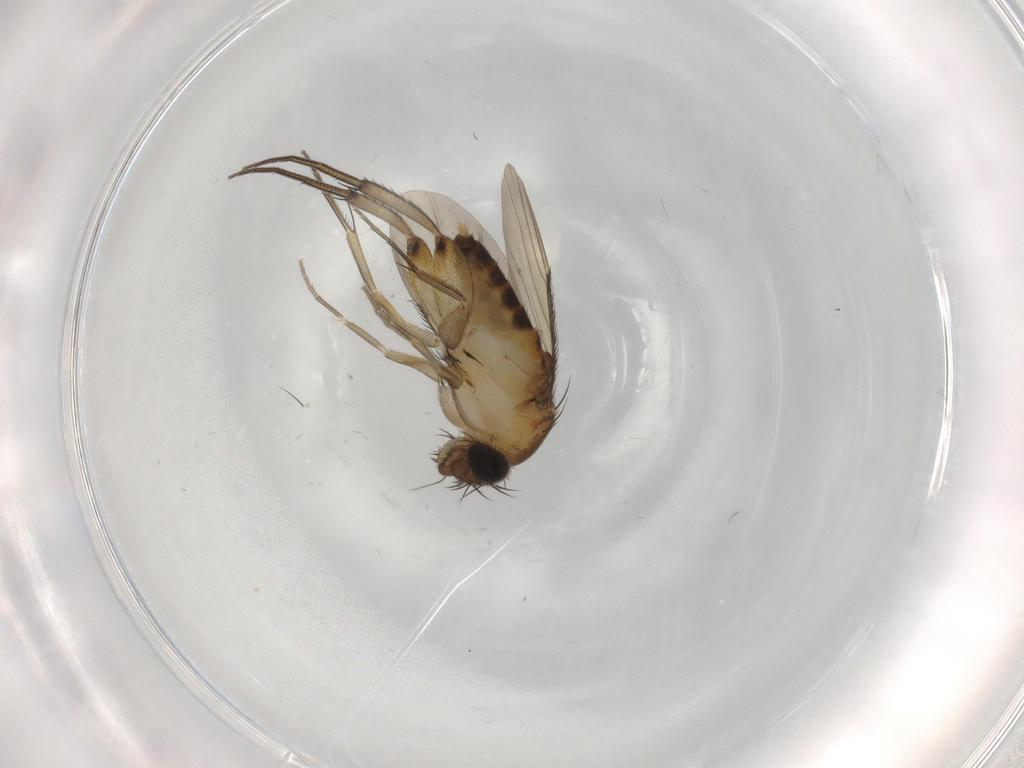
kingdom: Animalia
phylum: Arthropoda
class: Insecta
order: Diptera
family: Phoridae
